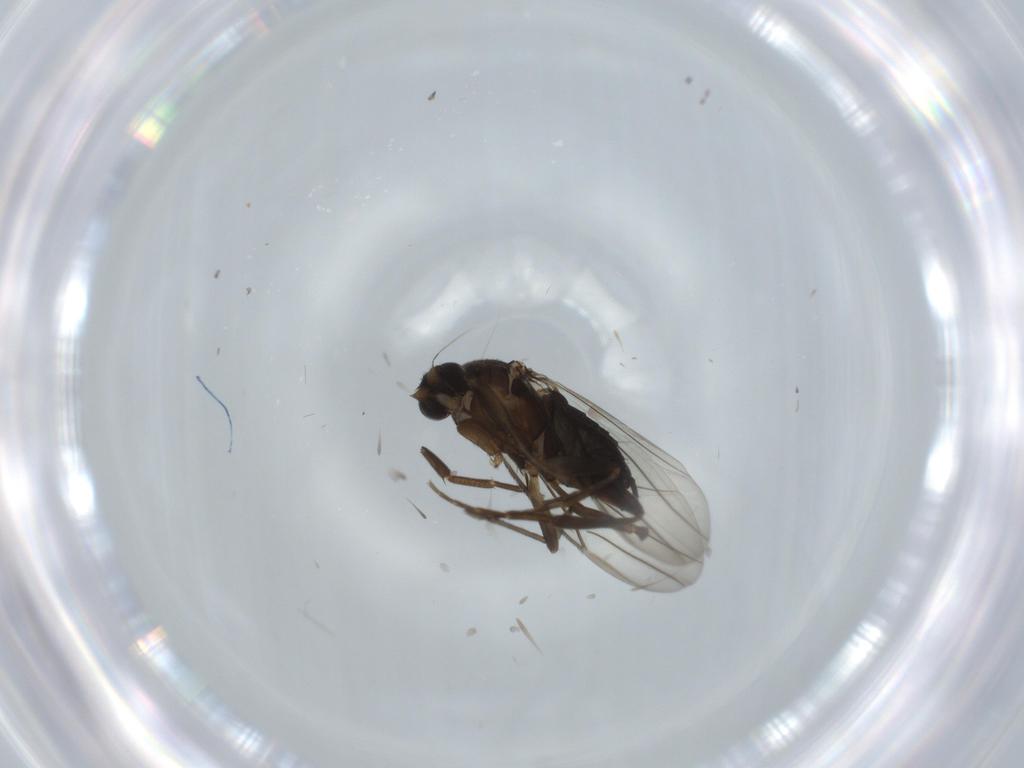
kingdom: Animalia
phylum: Arthropoda
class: Insecta
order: Diptera
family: Sciaridae
